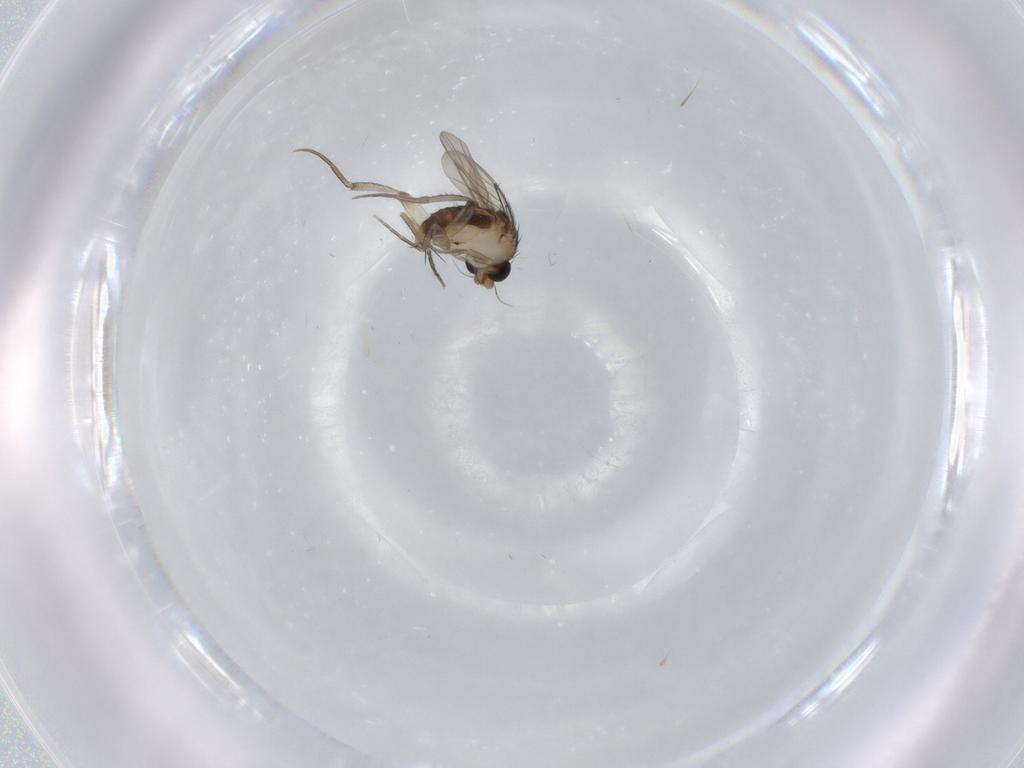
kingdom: Animalia
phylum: Arthropoda
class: Insecta
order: Diptera
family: Phoridae
